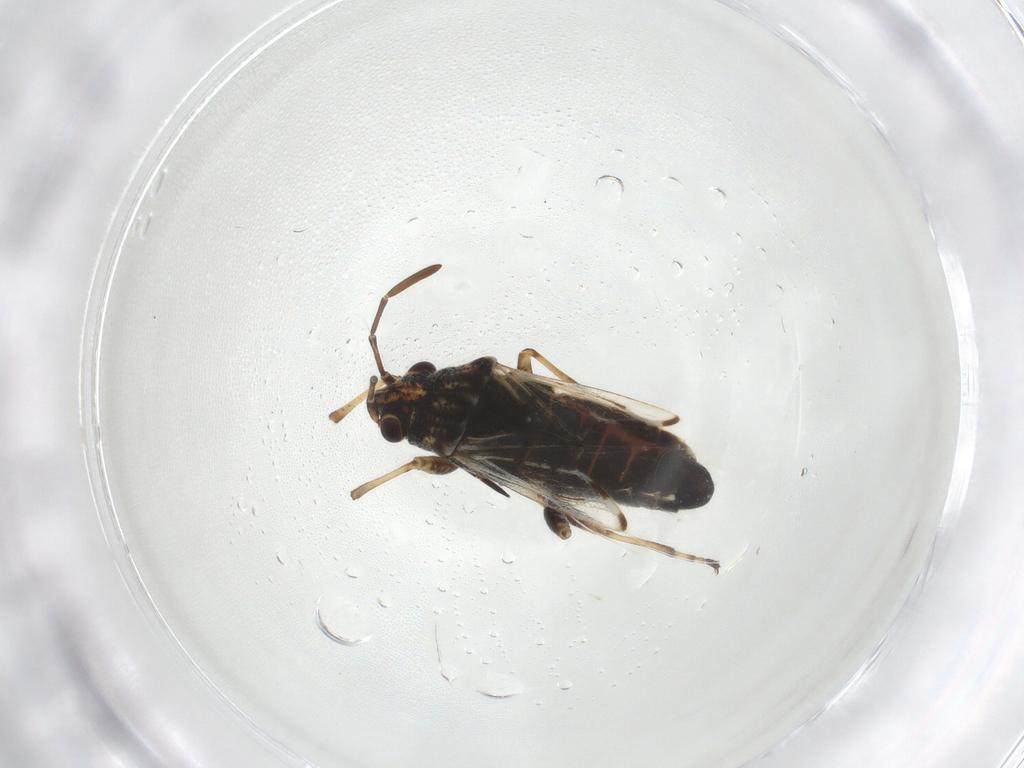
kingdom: Animalia
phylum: Arthropoda
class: Insecta
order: Hemiptera
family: Lygaeidae
